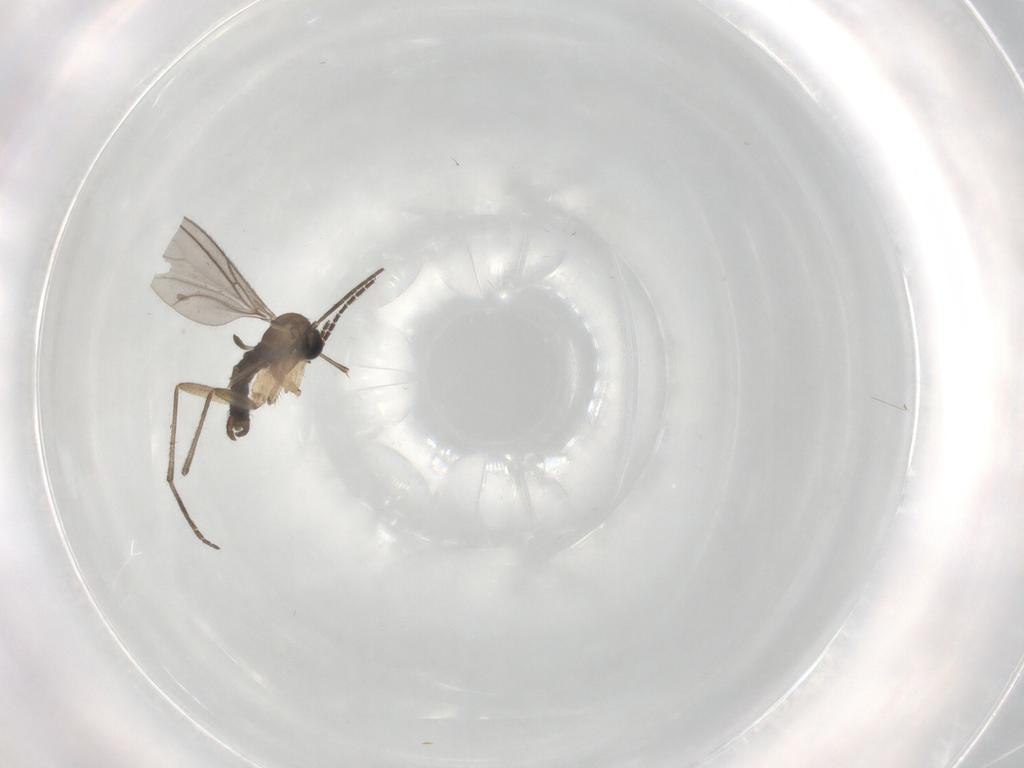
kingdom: Animalia
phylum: Arthropoda
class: Insecta
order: Diptera
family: Sciaridae
